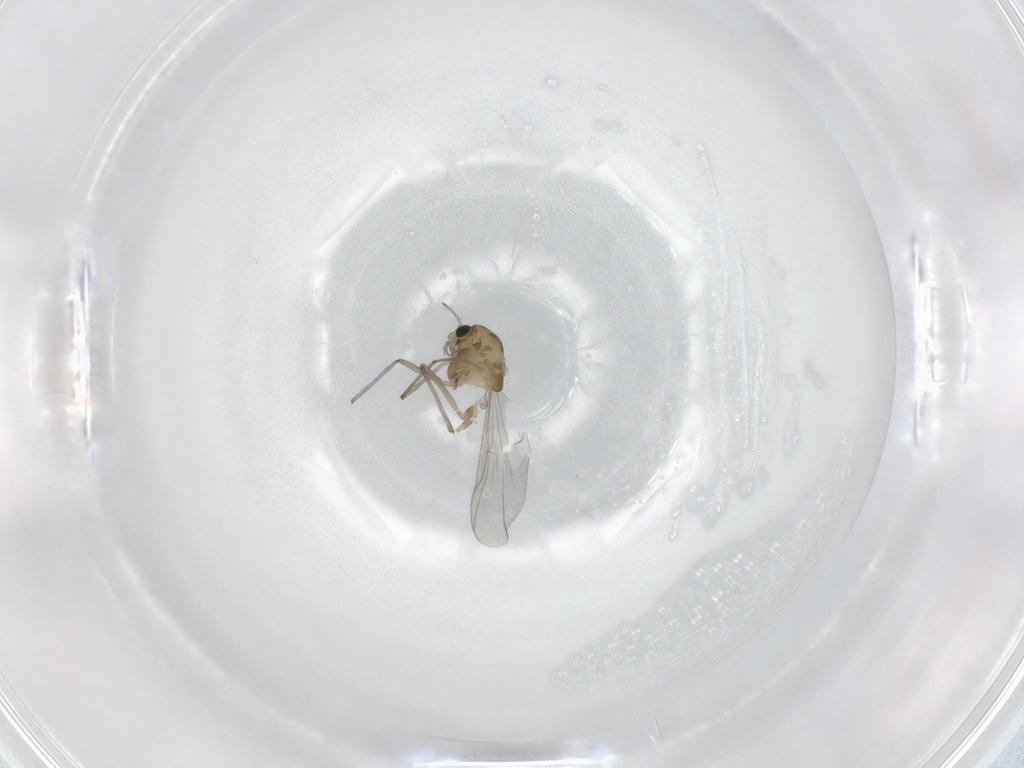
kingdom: Animalia
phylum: Arthropoda
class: Insecta
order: Diptera
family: Chironomidae
